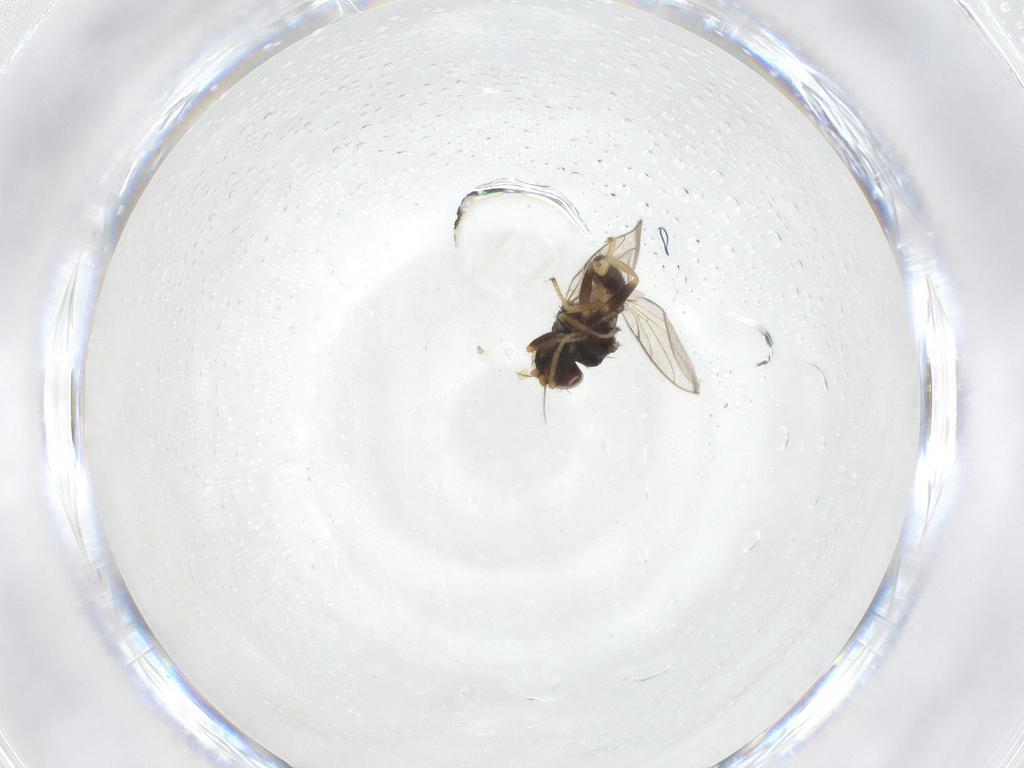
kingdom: Animalia
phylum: Arthropoda
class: Insecta
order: Diptera
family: Chloropidae
